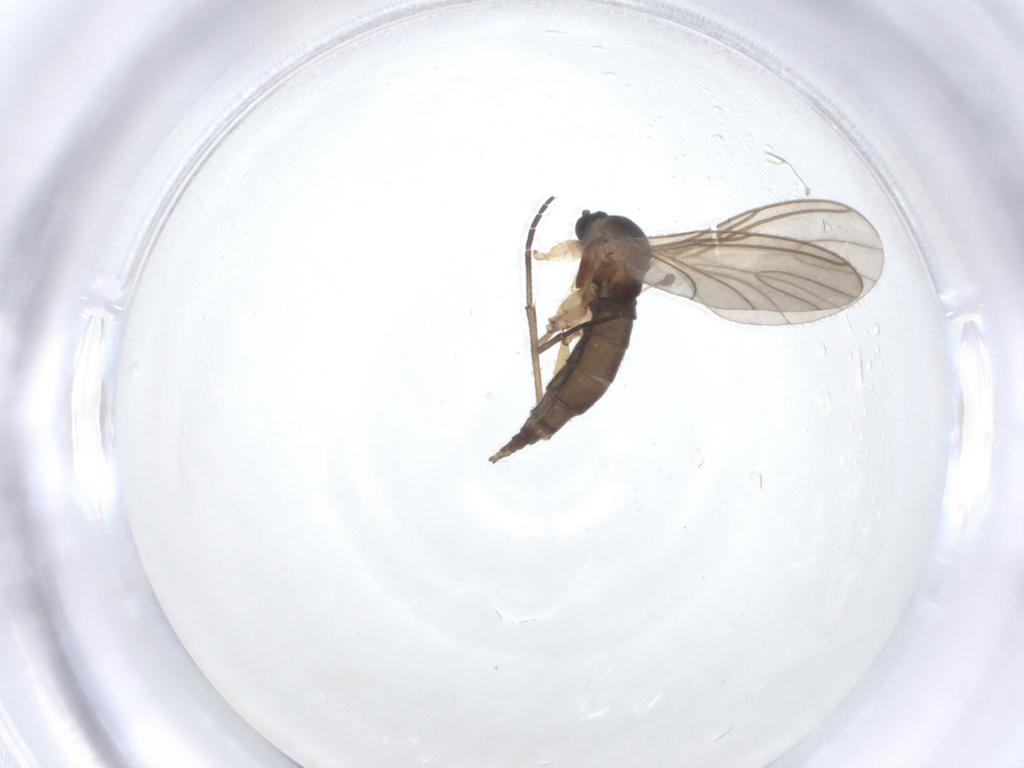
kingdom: Animalia
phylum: Arthropoda
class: Insecta
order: Diptera
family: Sciaridae
